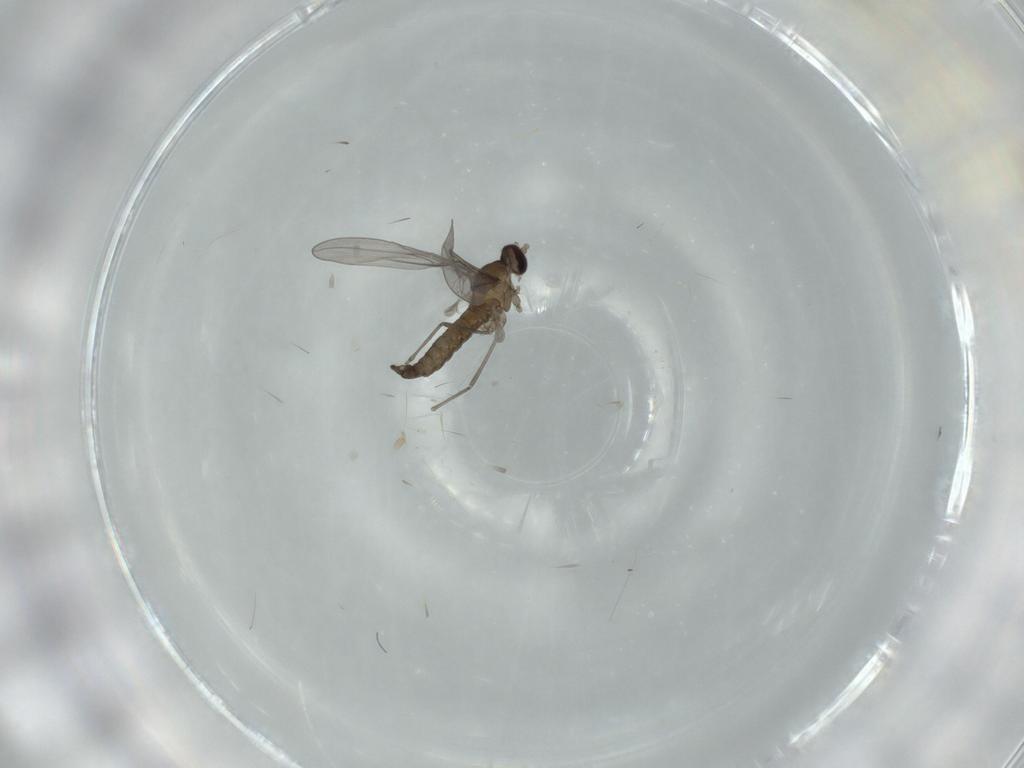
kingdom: Animalia
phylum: Arthropoda
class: Insecta
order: Diptera
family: Cecidomyiidae
